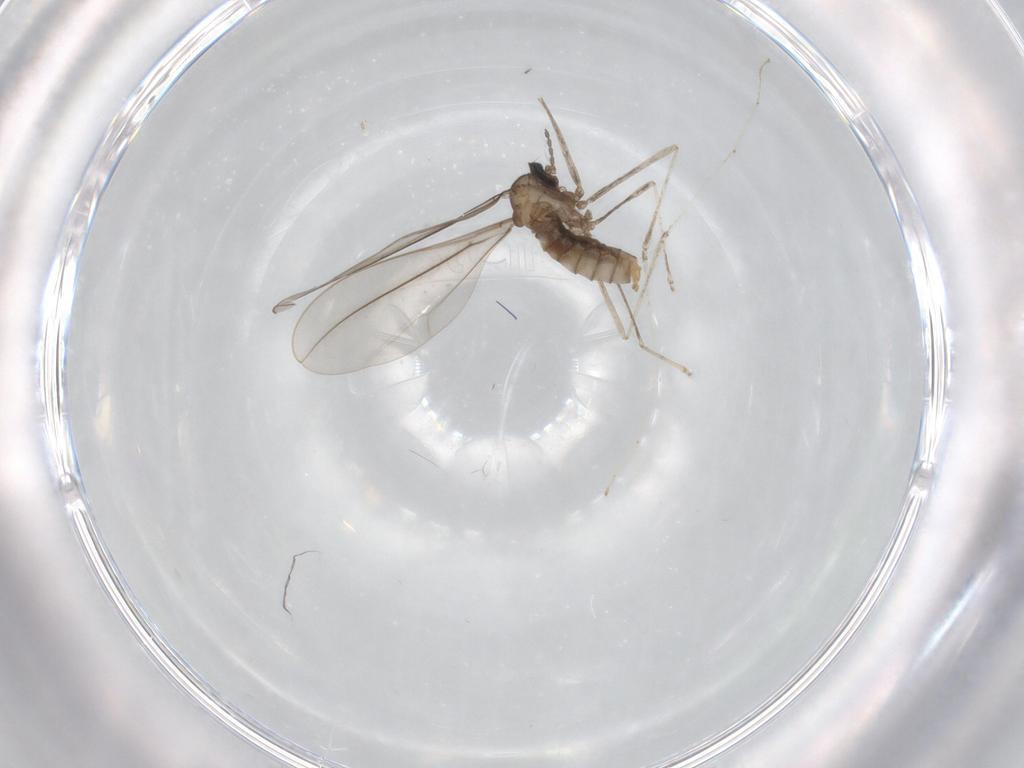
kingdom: Animalia
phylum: Arthropoda
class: Insecta
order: Diptera
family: Cecidomyiidae
